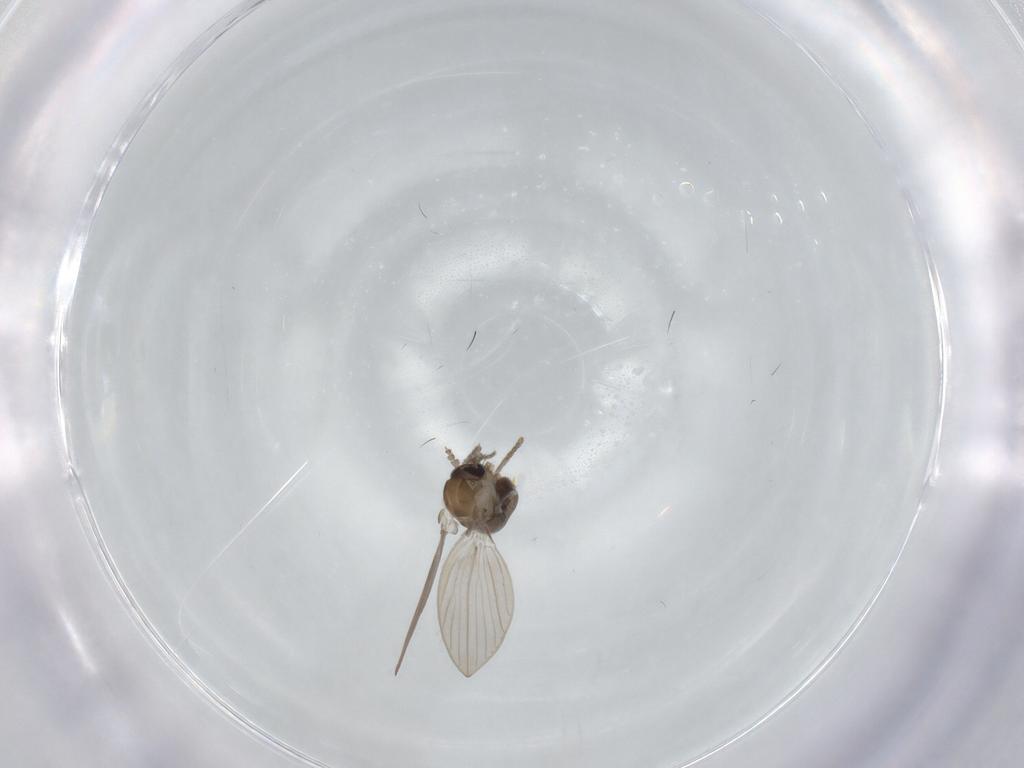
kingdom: Animalia
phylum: Arthropoda
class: Insecta
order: Diptera
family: Psychodidae
